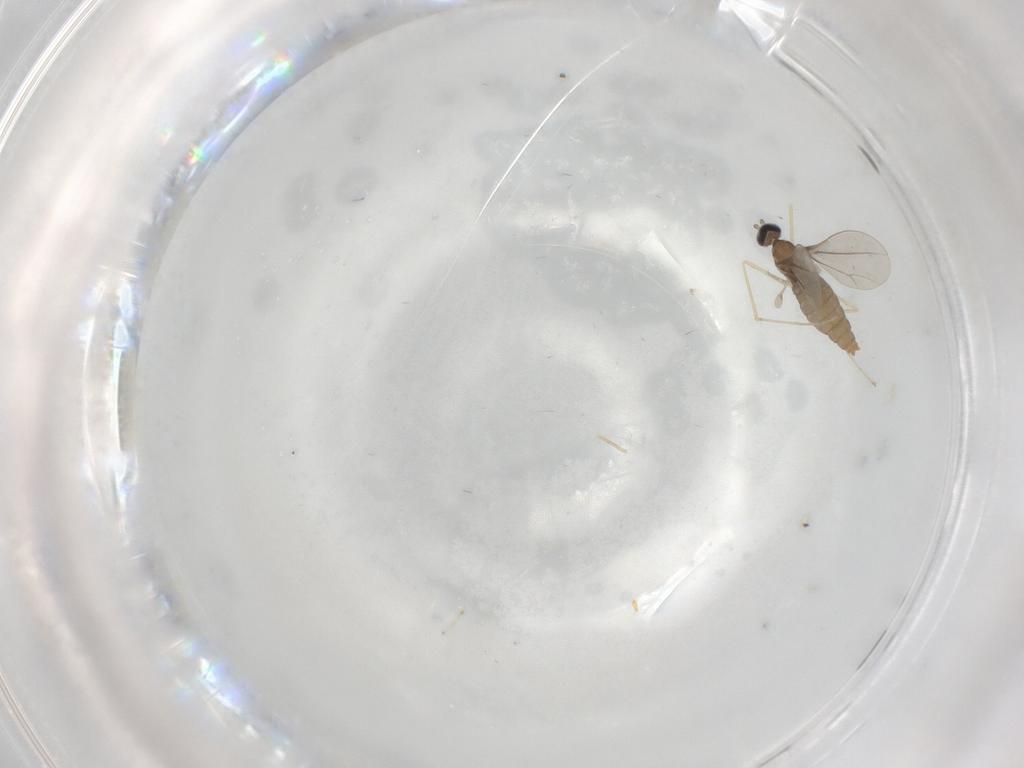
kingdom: Animalia
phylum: Arthropoda
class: Insecta
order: Diptera
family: Cecidomyiidae
